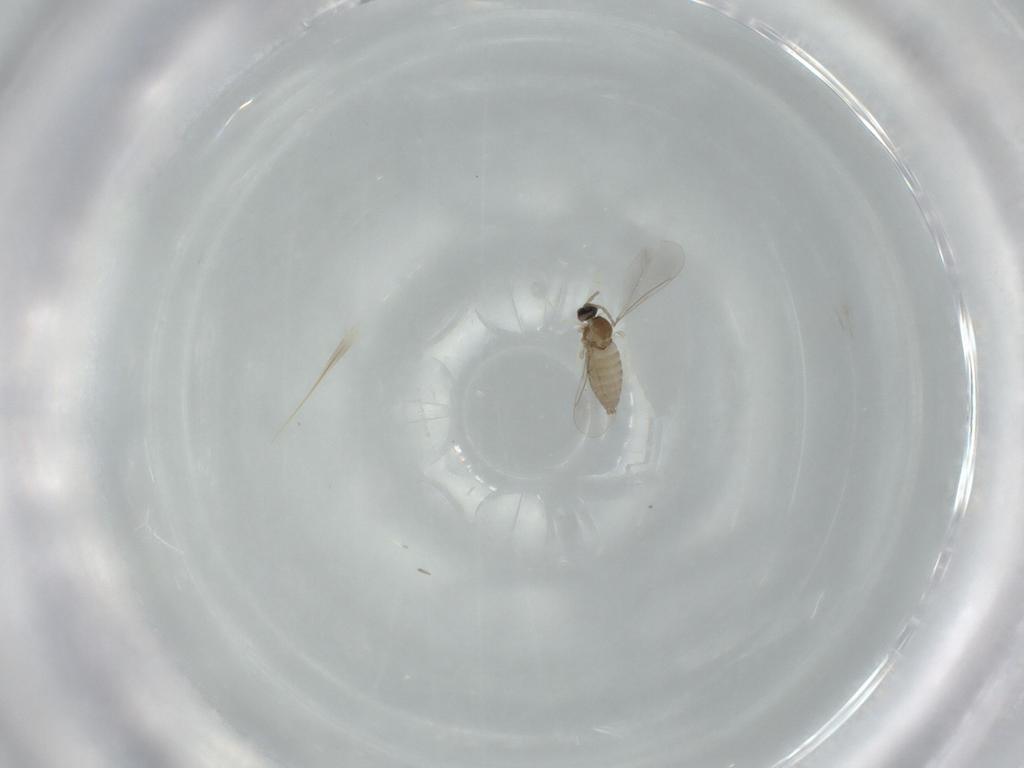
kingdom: Animalia
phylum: Arthropoda
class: Insecta
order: Diptera
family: Cecidomyiidae
